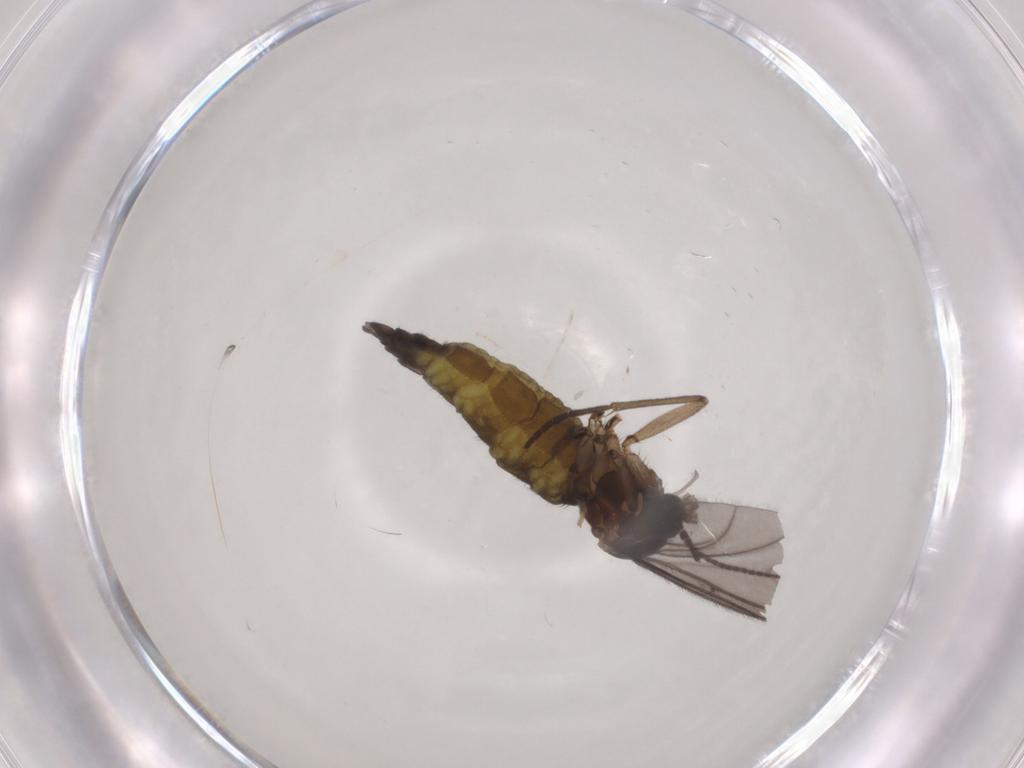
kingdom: Animalia
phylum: Arthropoda
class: Insecta
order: Diptera
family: Sciaridae
